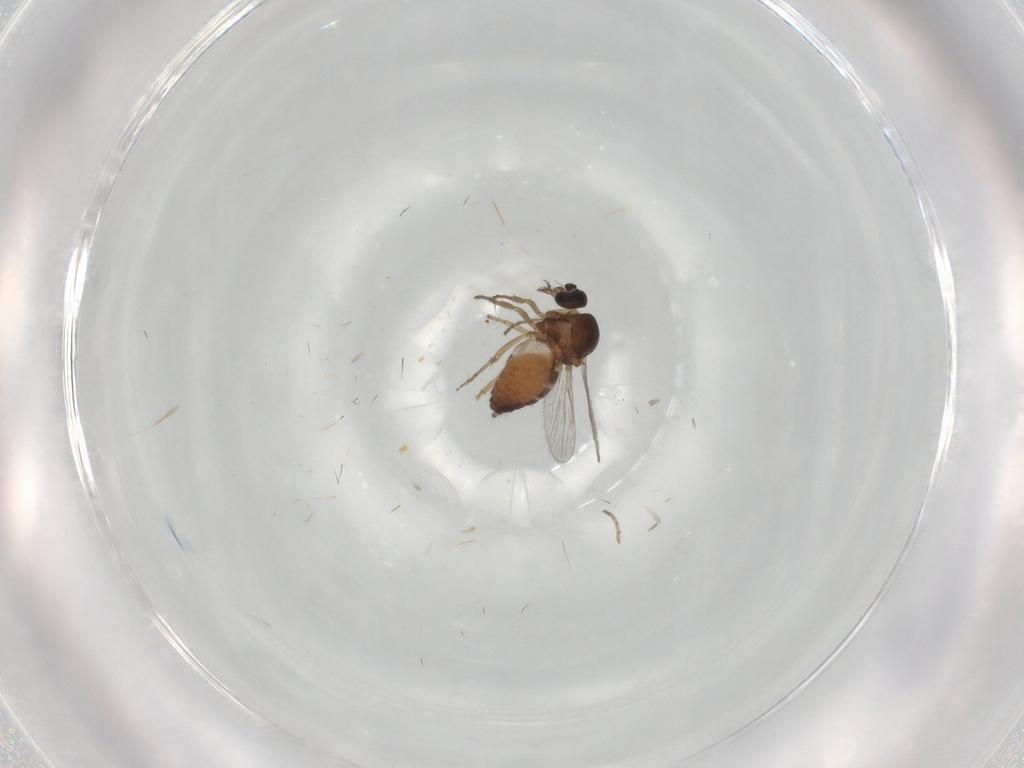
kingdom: Animalia
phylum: Arthropoda
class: Insecta
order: Diptera
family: Ceratopogonidae
